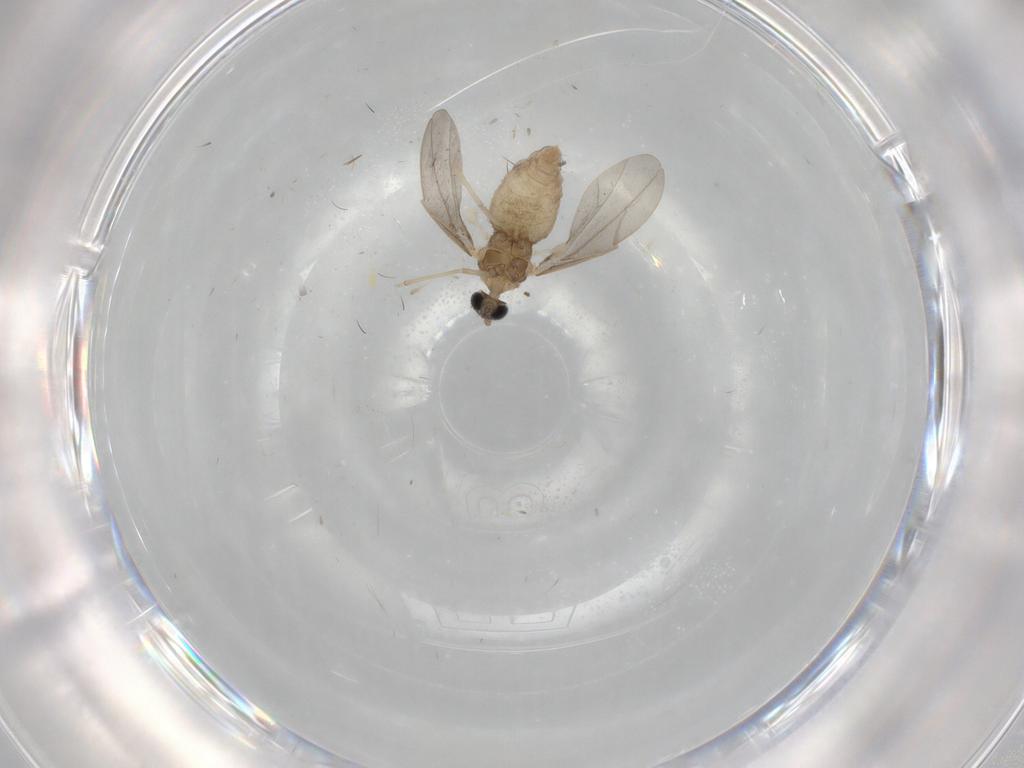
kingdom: Animalia
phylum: Arthropoda
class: Insecta
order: Diptera
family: Cecidomyiidae
